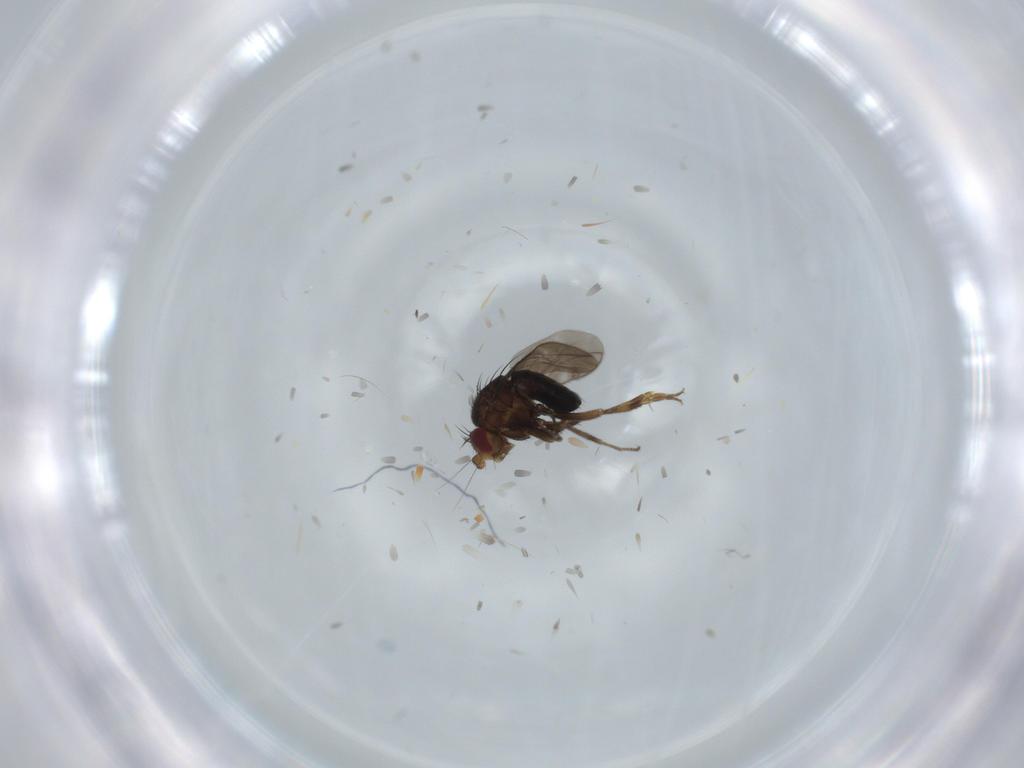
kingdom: Animalia
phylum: Arthropoda
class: Insecta
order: Diptera
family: Sphaeroceridae
